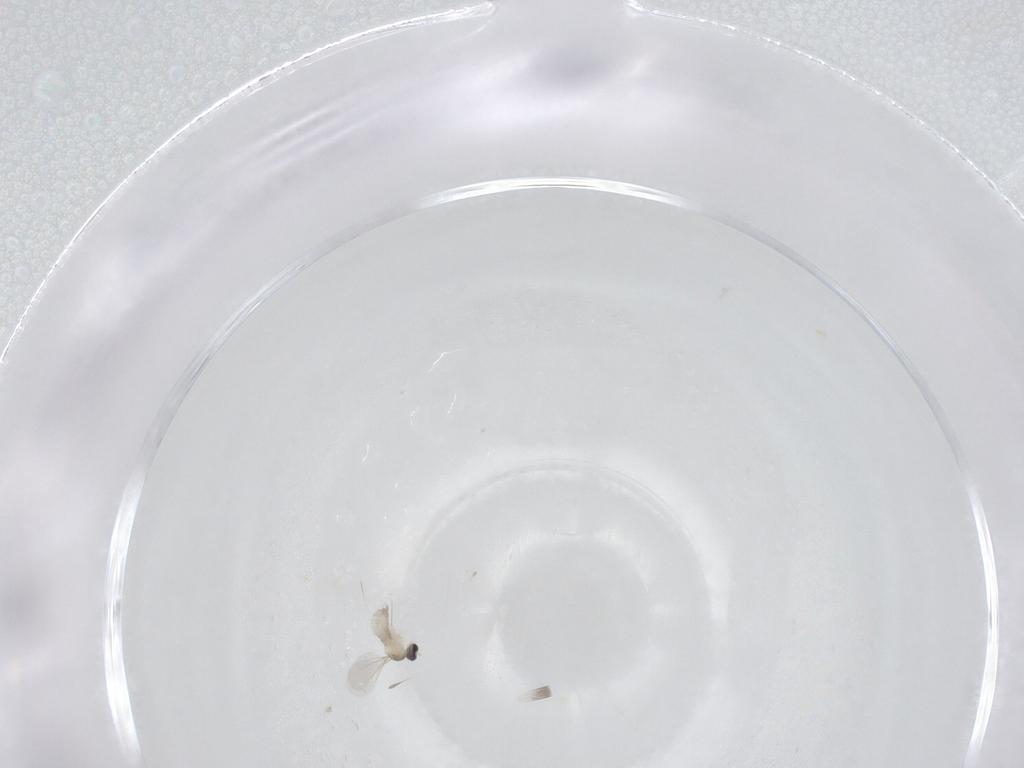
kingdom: Animalia
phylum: Arthropoda
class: Insecta
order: Diptera
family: Cecidomyiidae
